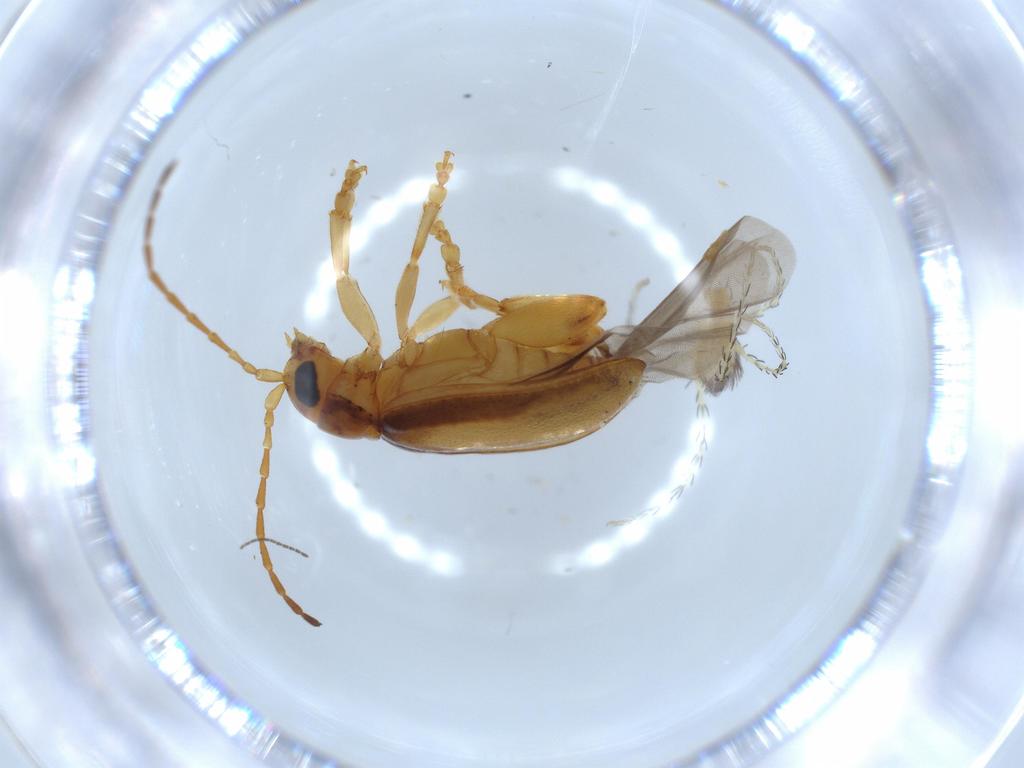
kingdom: Animalia
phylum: Arthropoda
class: Insecta
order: Coleoptera
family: Chrysomelidae
